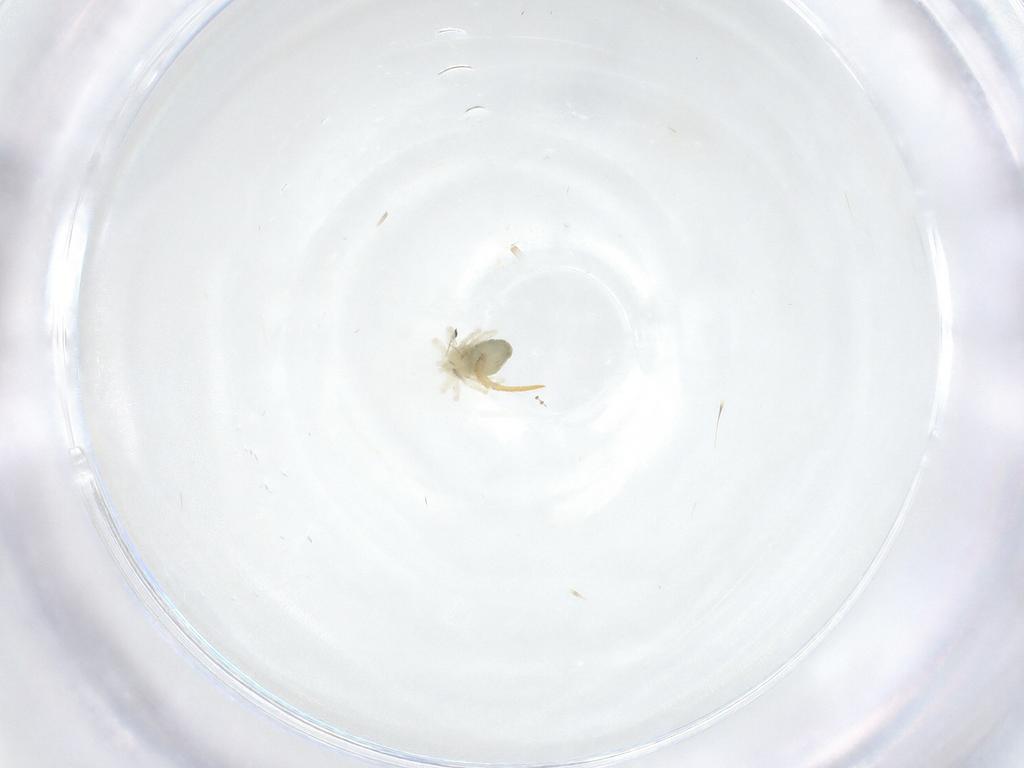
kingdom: Animalia
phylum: Arthropoda
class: Arachnida
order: Trombidiformes
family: Anystidae
